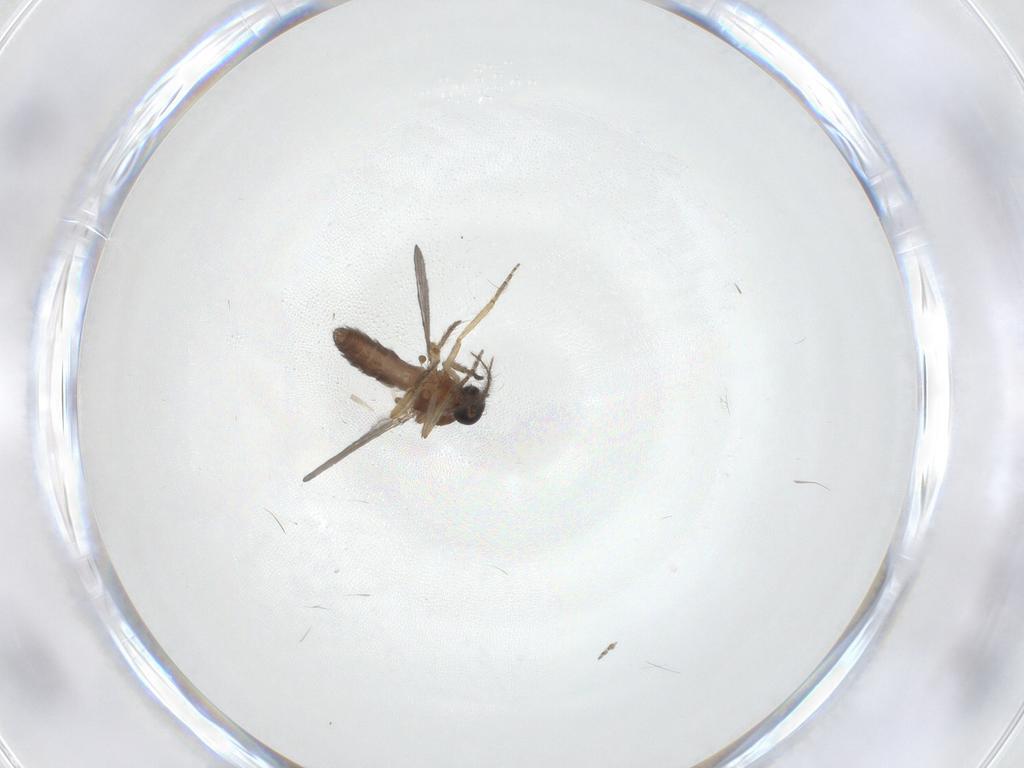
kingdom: Animalia
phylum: Arthropoda
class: Insecta
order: Diptera
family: Ceratopogonidae
